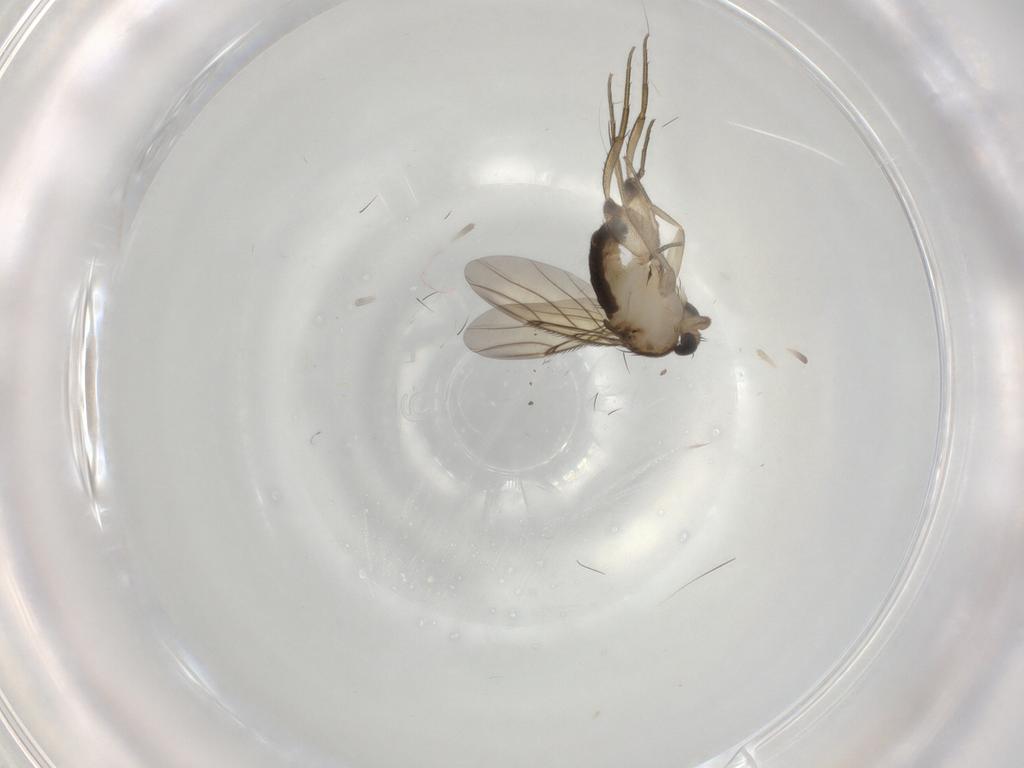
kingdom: Animalia
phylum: Arthropoda
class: Insecta
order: Diptera
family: Phoridae
